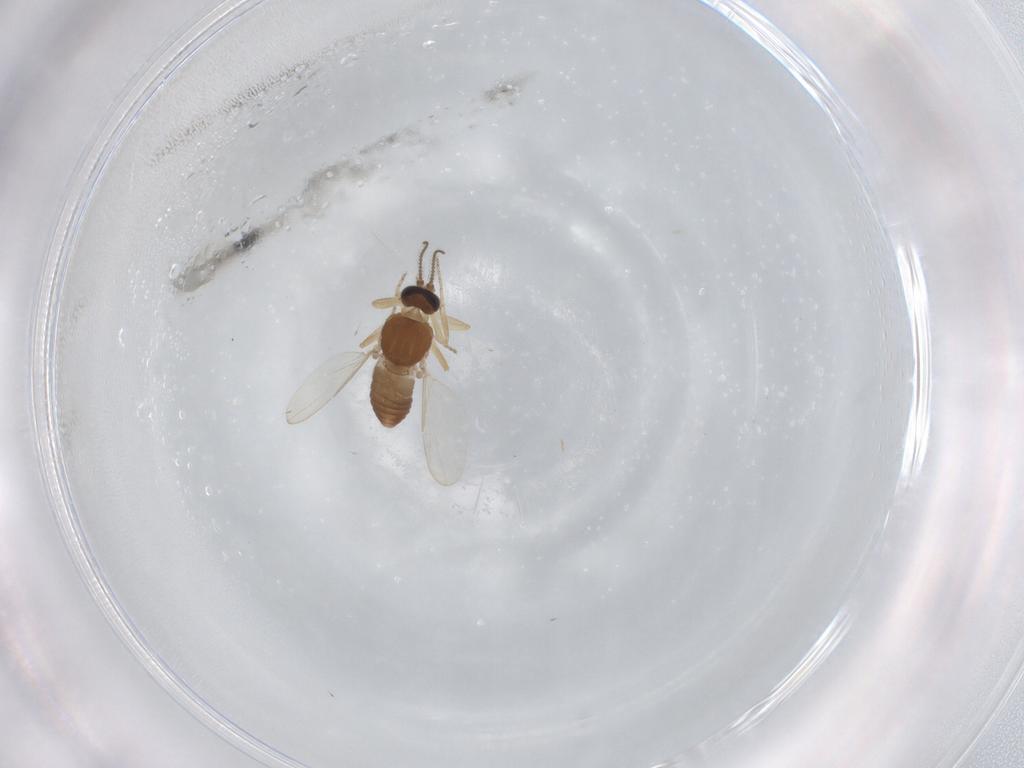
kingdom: Animalia
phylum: Arthropoda
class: Insecta
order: Diptera
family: Ceratopogonidae
